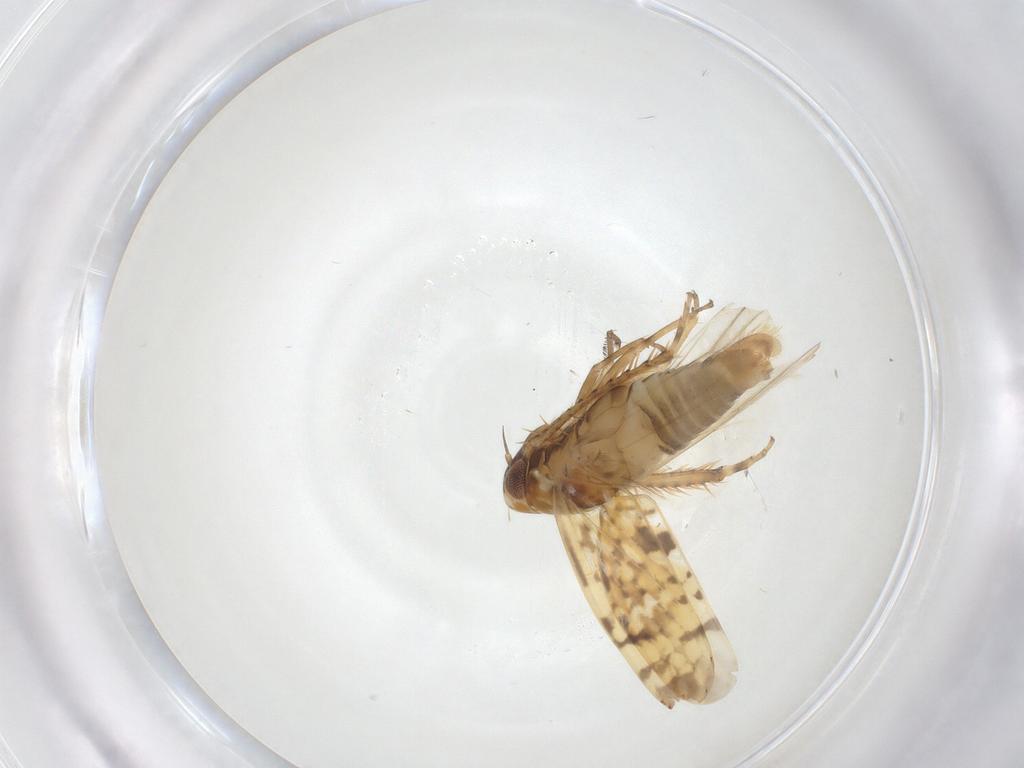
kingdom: Animalia
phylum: Arthropoda
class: Insecta
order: Hemiptera
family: Cicadellidae
